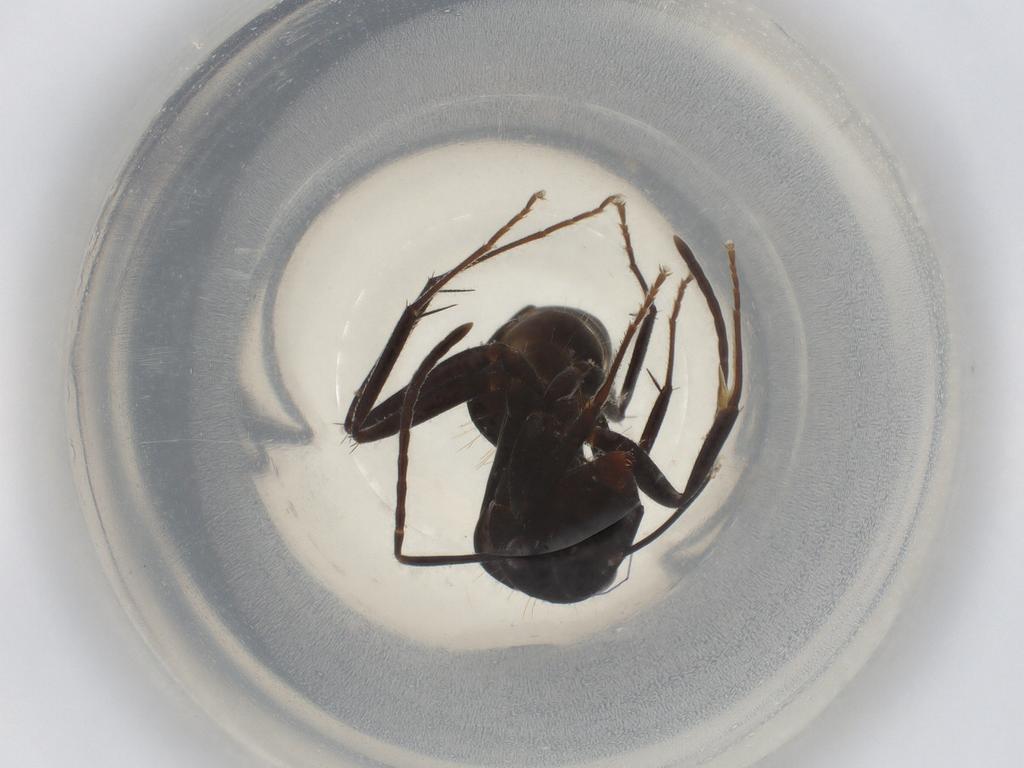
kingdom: Animalia
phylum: Arthropoda
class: Insecta
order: Hymenoptera
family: Formicidae
